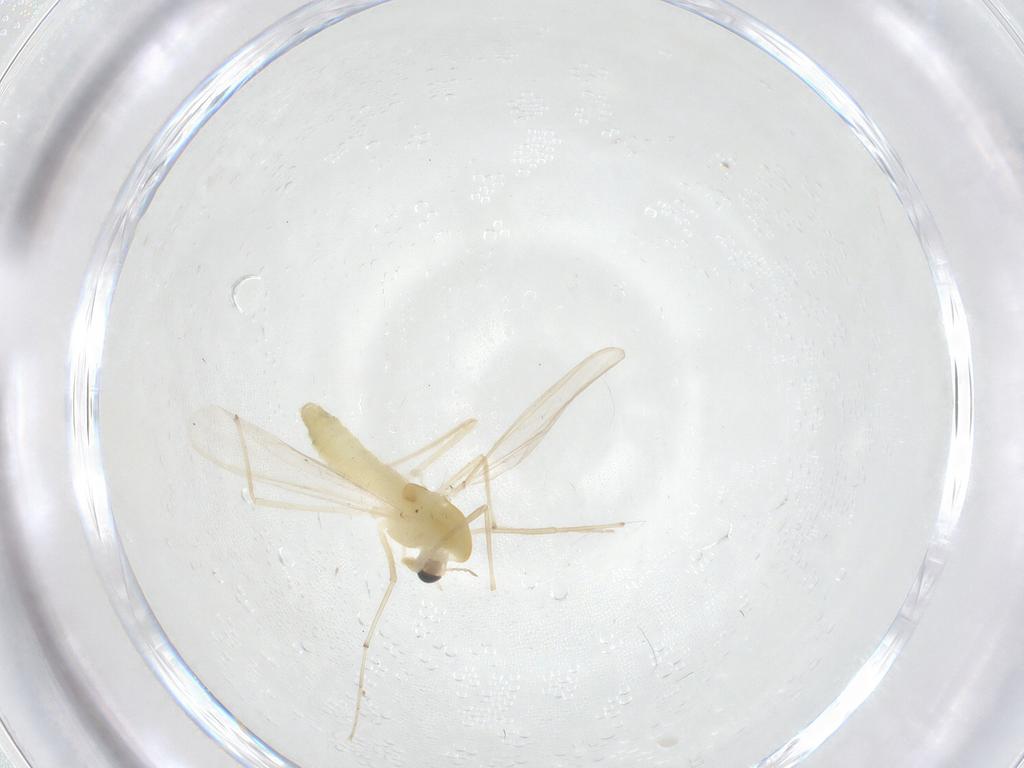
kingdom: Animalia
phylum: Arthropoda
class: Insecta
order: Diptera
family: Chironomidae
